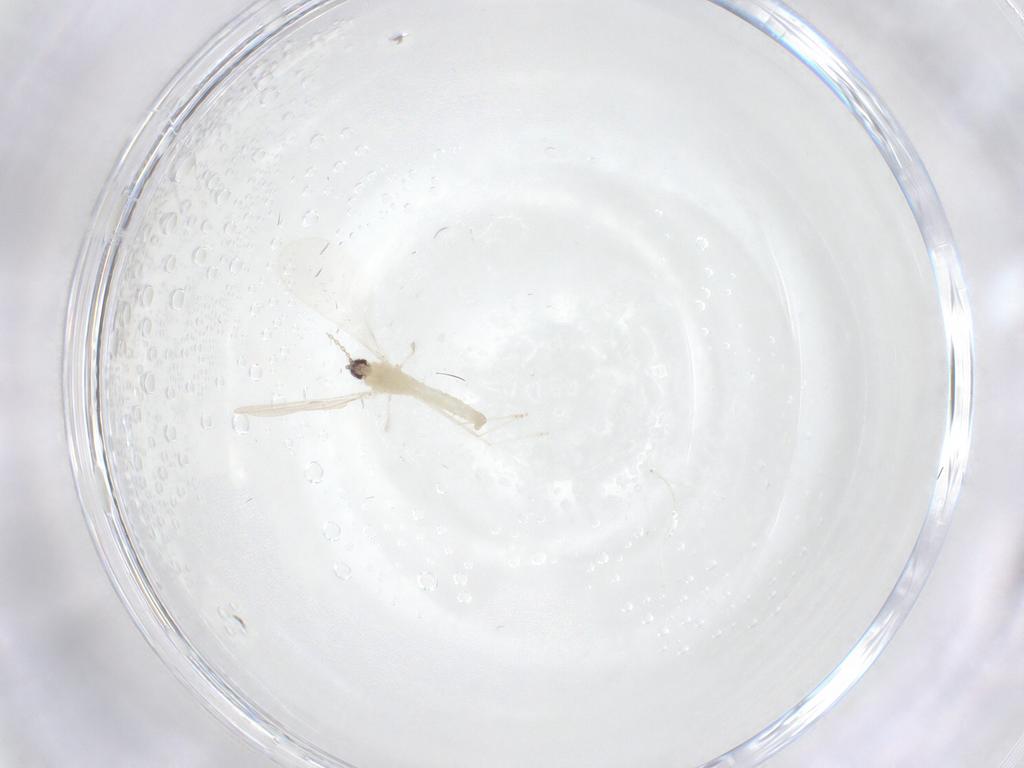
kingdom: Animalia
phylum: Arthropoda
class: Insecta
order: Diptera
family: Cecidomyiidae
